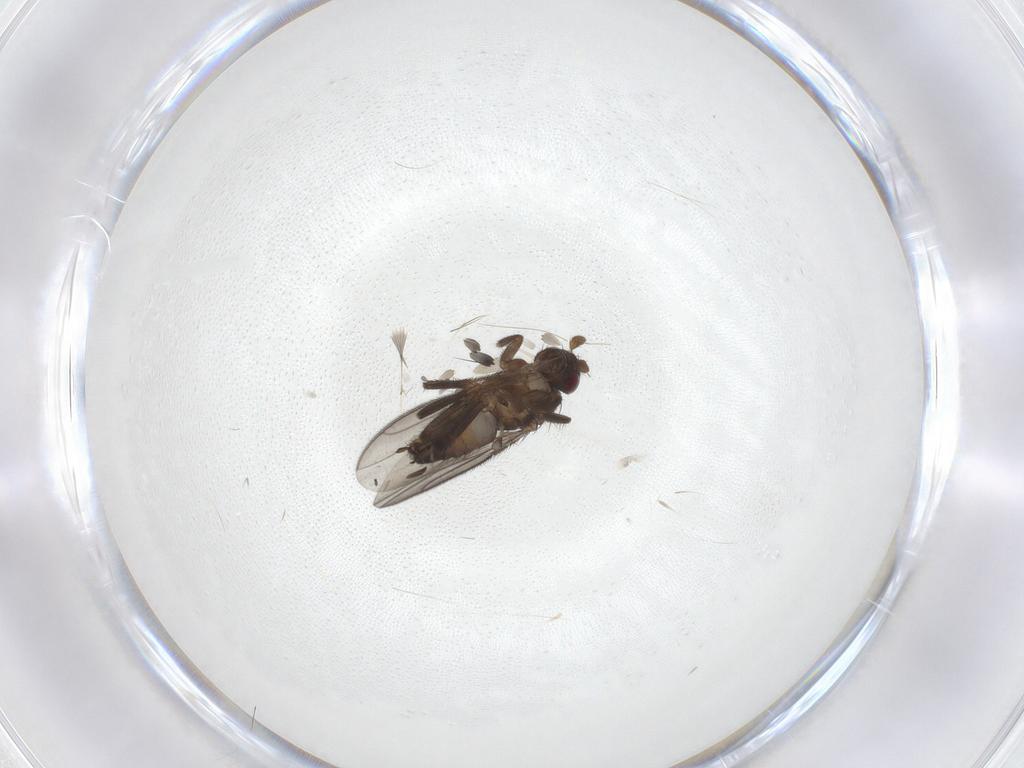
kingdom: Animalia
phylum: Arthropoda
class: Insecta
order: Diptera
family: Sphaeroceridae
